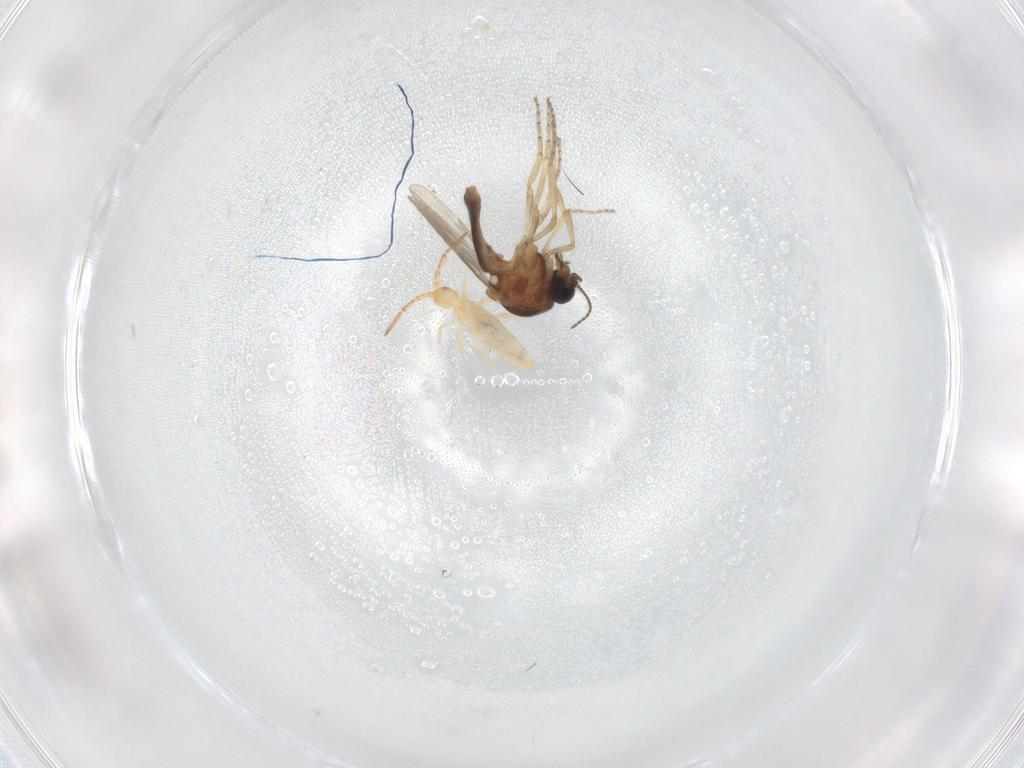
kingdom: Animalia
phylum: Arthropoda
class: Insecta
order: Diptera
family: Ceratopogonidae
